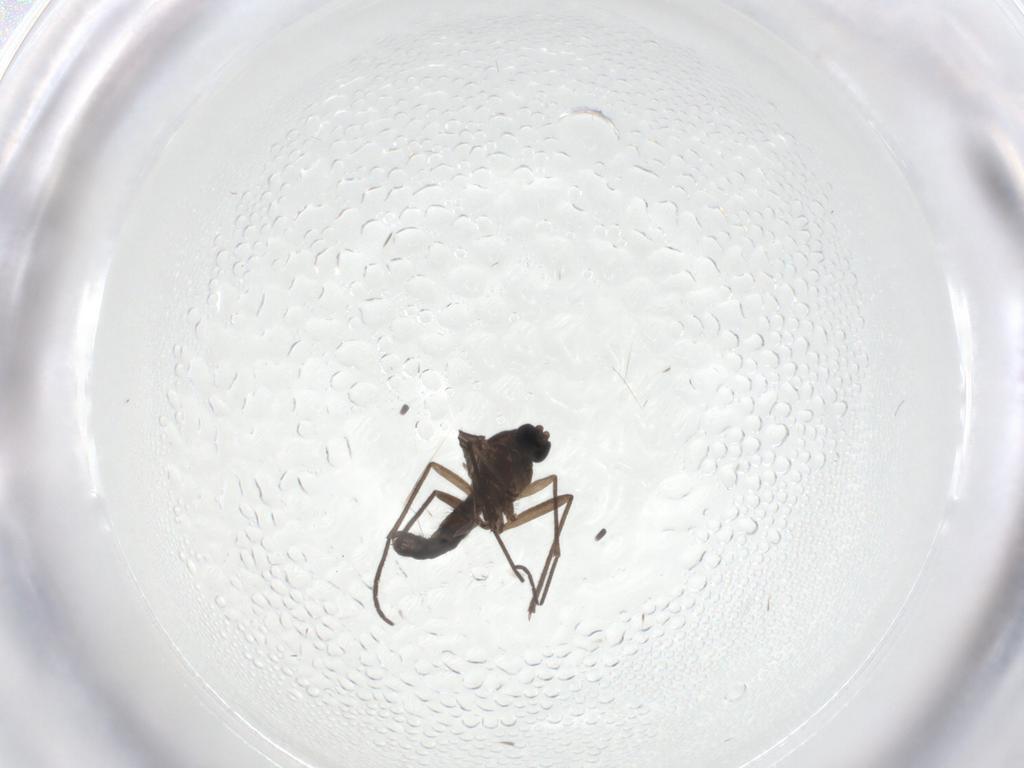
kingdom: Animalia
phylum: Arthropoda
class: Insecta
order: Diptera
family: Sciaridae
